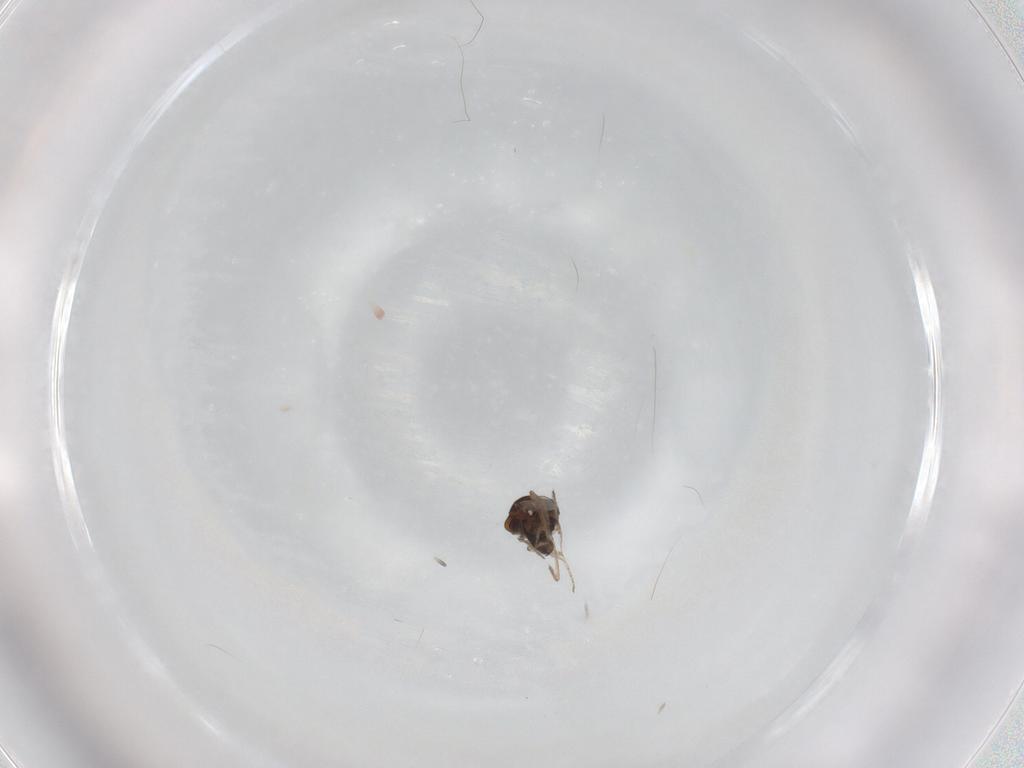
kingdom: Animalia
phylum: Arthropoda
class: Insecta
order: Diptera
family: Ceratopogonidae
